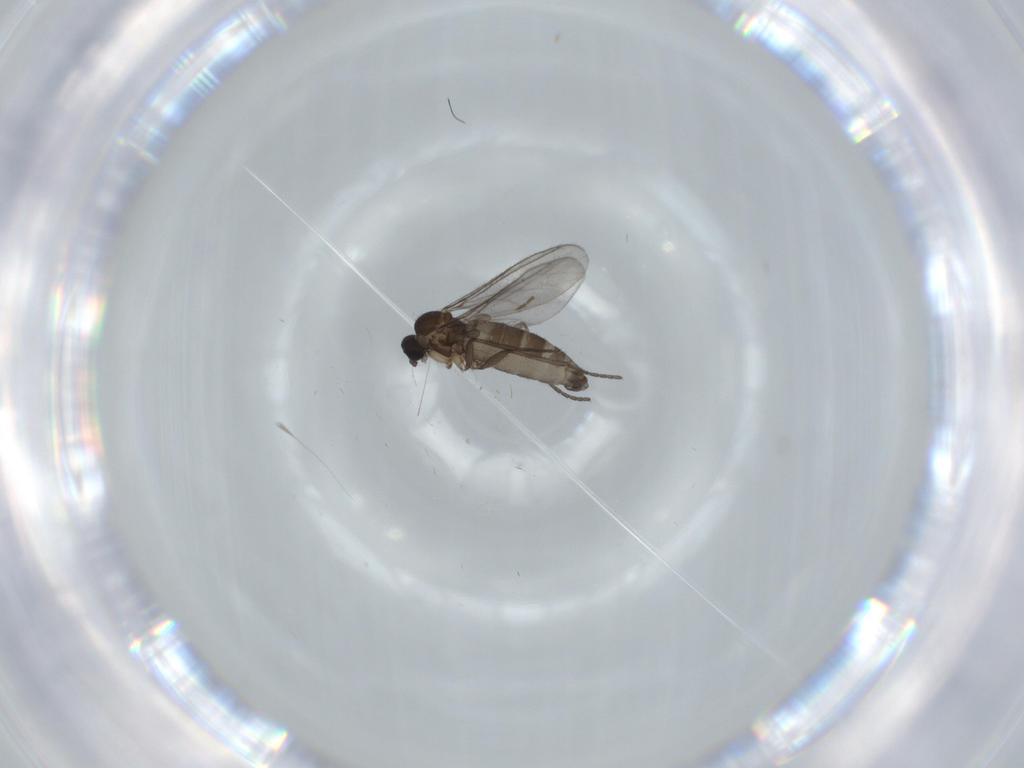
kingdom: Animalia
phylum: Arthropoda
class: Insecta
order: Diptera
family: Sciaridae
